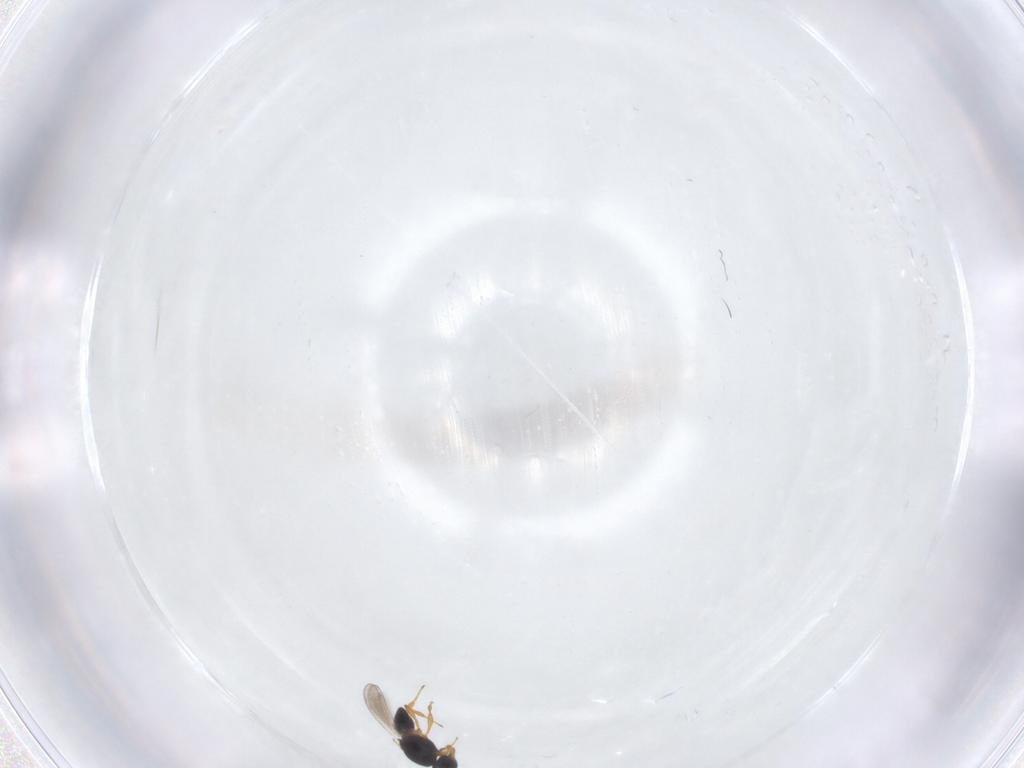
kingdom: Animalia
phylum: Arthropoda
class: Insecta
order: Hymenoptera
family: Platygastridae
